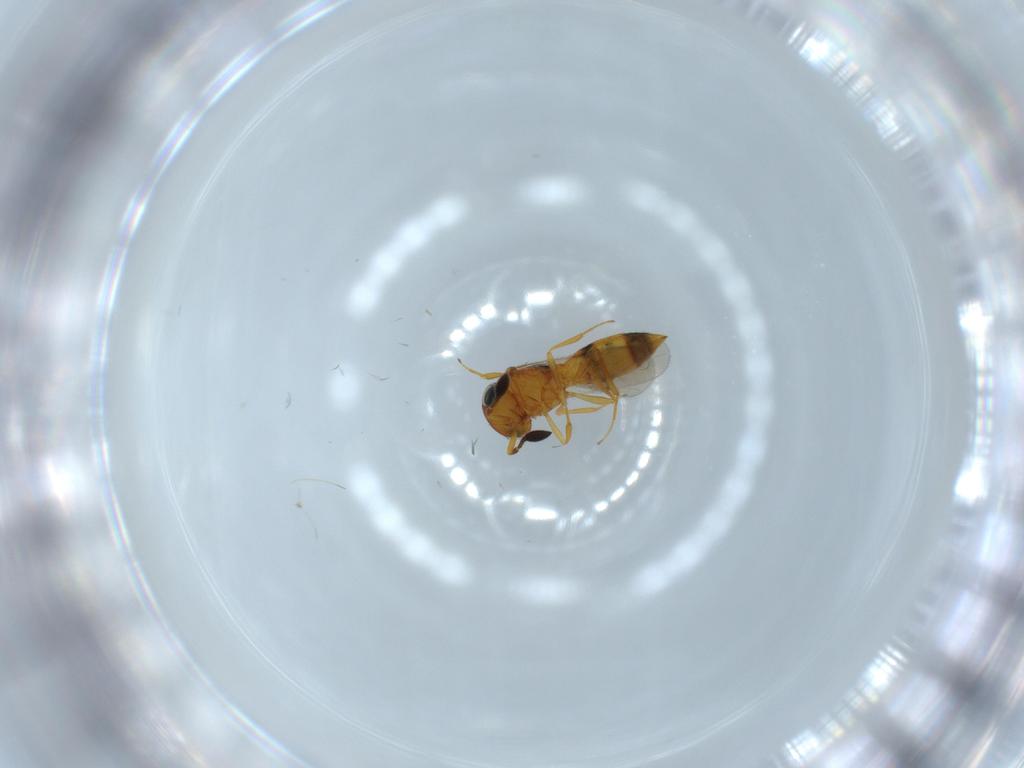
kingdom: Animalia
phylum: Arthropoda
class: Insecta
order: Hymenoptera
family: Scelionidae
